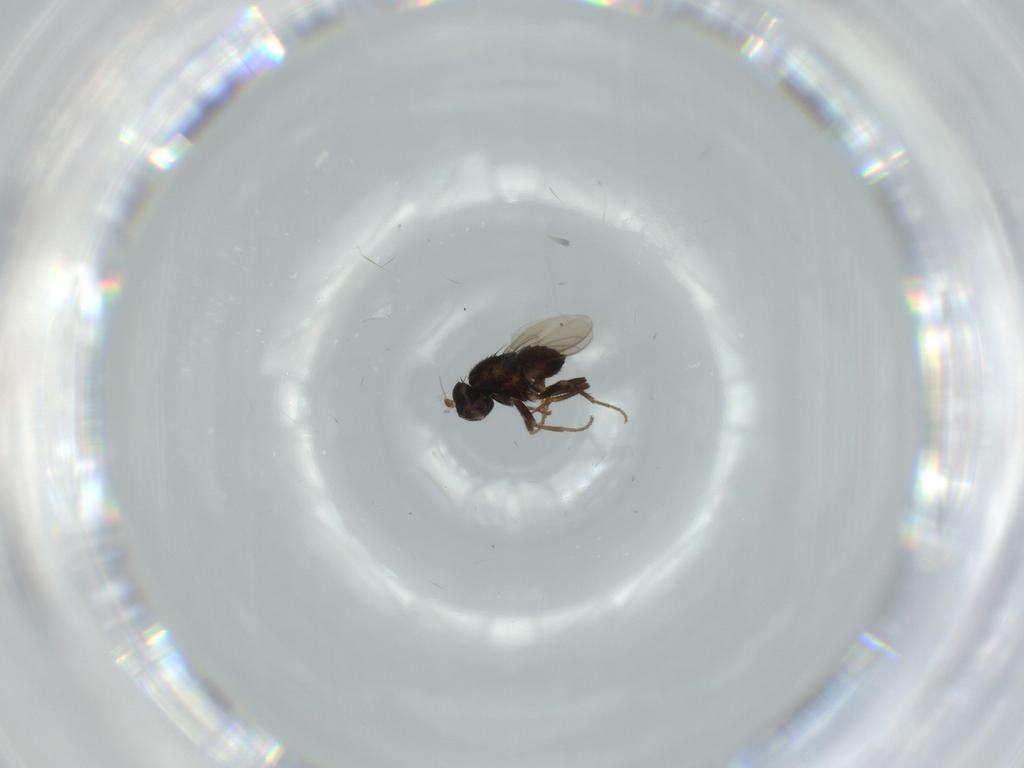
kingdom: Animalia
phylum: Arthropoda
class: Insecta
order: Diptera
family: Sphaeroceridae
